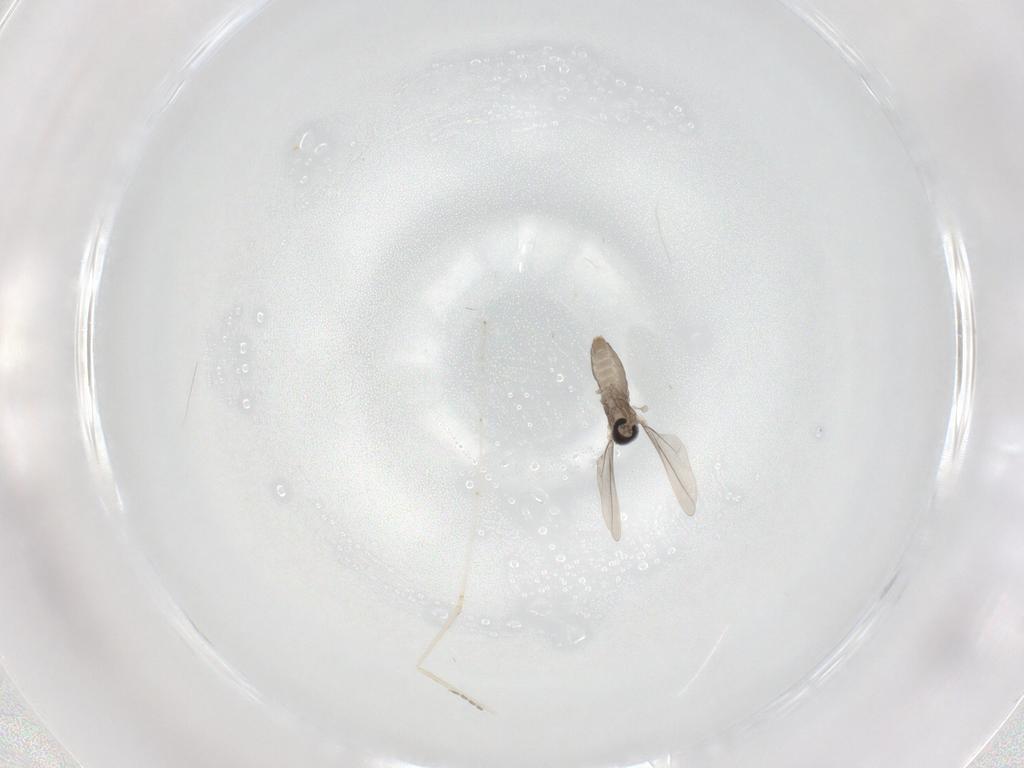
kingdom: Animalia
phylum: Arthropoda
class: Insecta
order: Diptera
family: Cecidomyiidae
